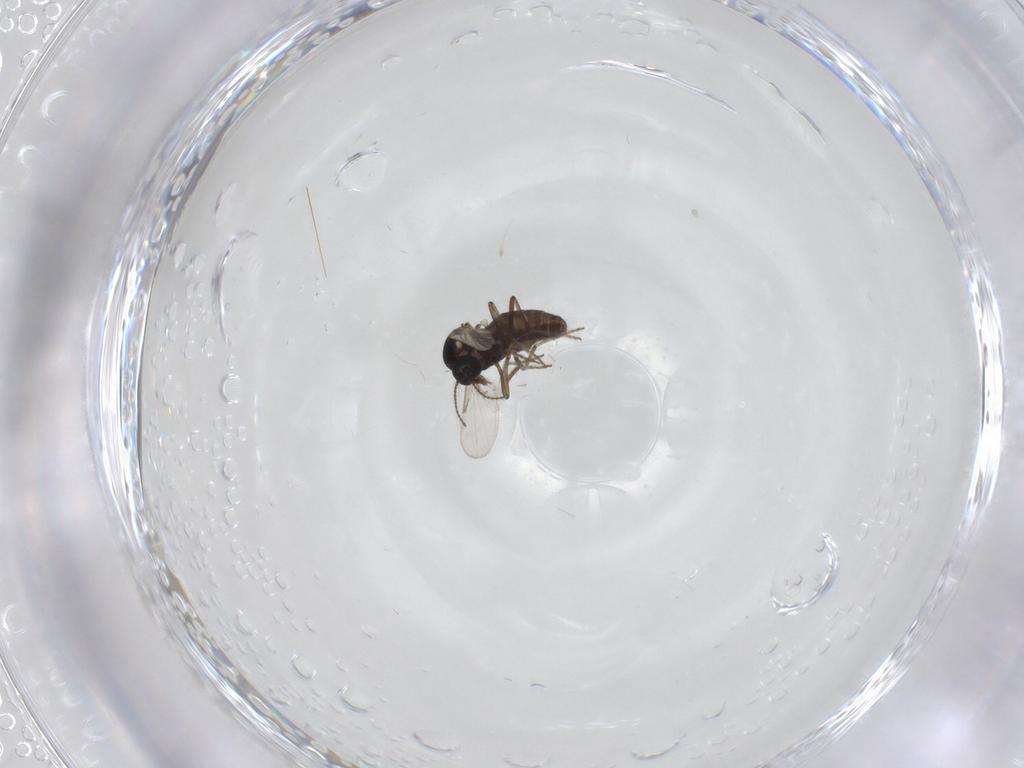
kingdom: Animalia
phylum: Arthropoda
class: Insecta
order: Diptera
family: Ceratopogonidae
